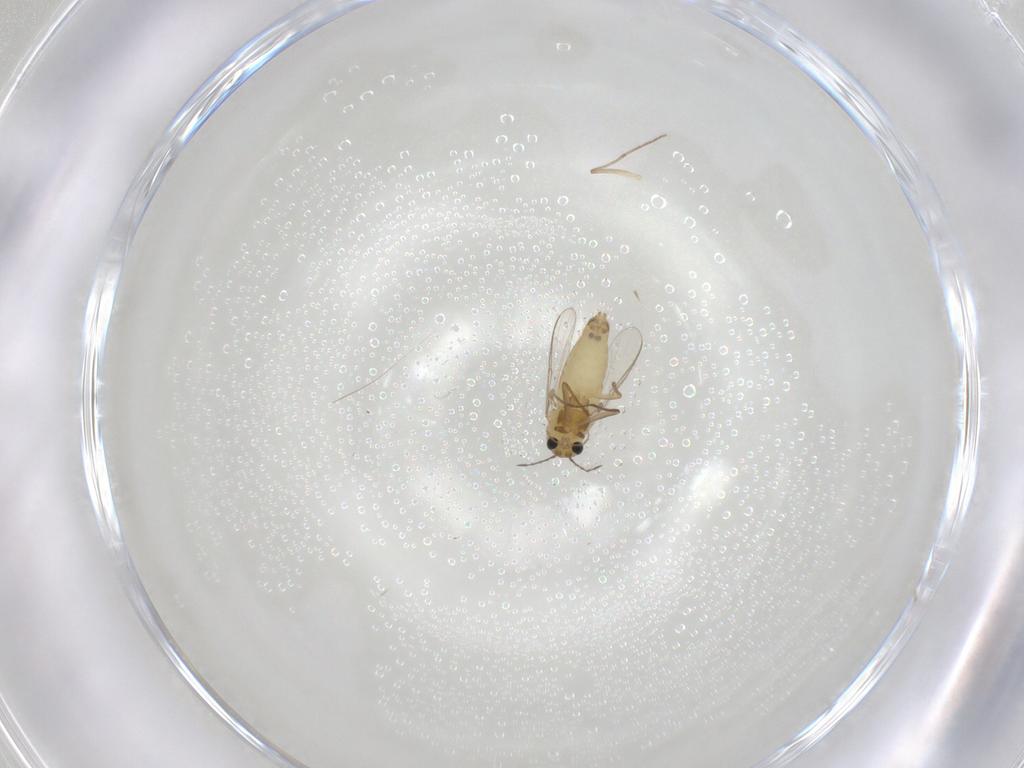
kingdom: Animalia
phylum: Arthropoda
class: Insecta
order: Diptera
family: Chironomidae
